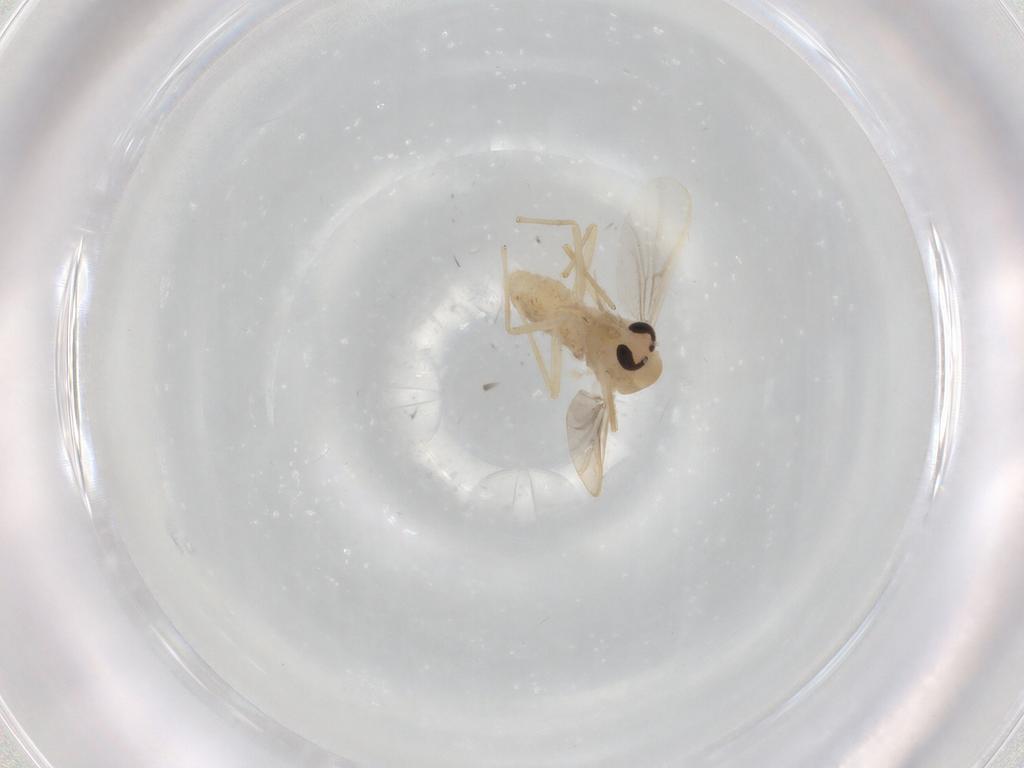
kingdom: Animalia
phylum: Arthropoda
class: Insecta
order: Diptera
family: Chironomidae
